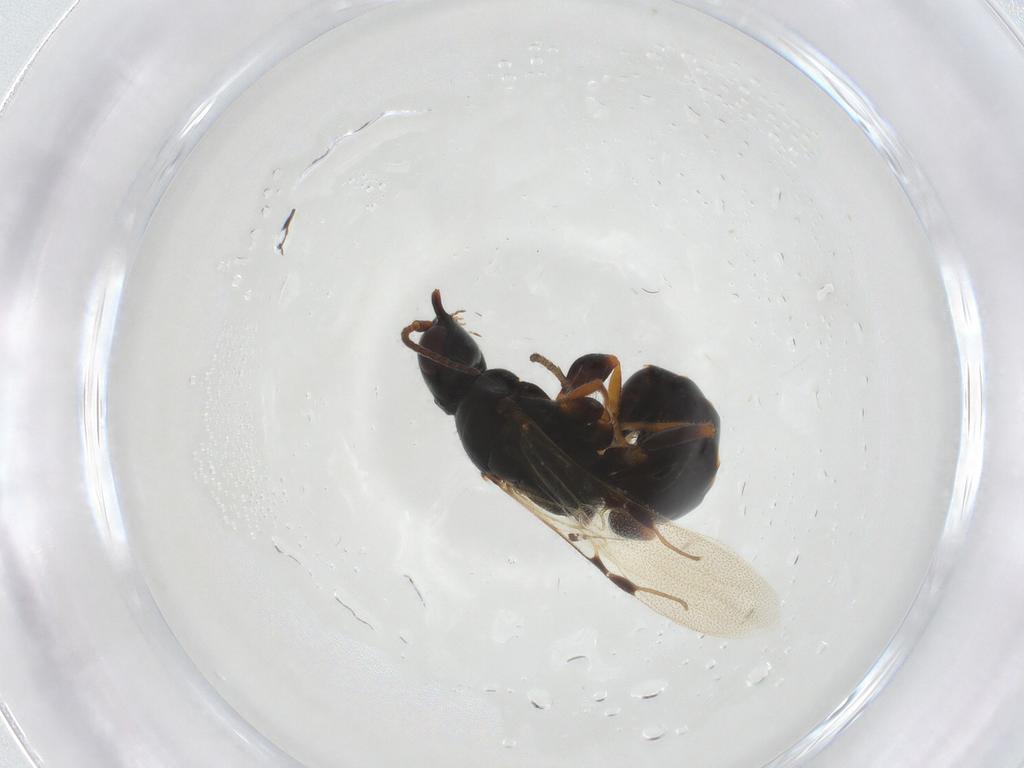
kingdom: Animalia
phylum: Arthropoda
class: Insecta
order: Hymenoptera
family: Bethylidae
